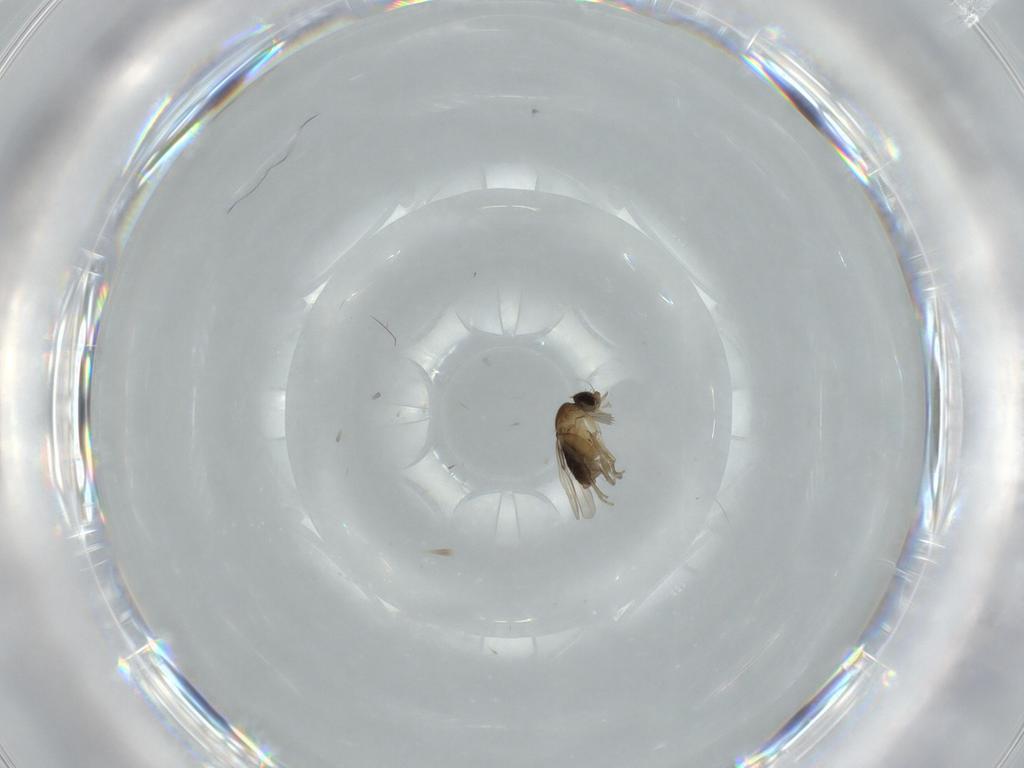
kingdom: Animalia
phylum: Arthropoda
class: Insecta
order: Diptera
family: Phoridae
